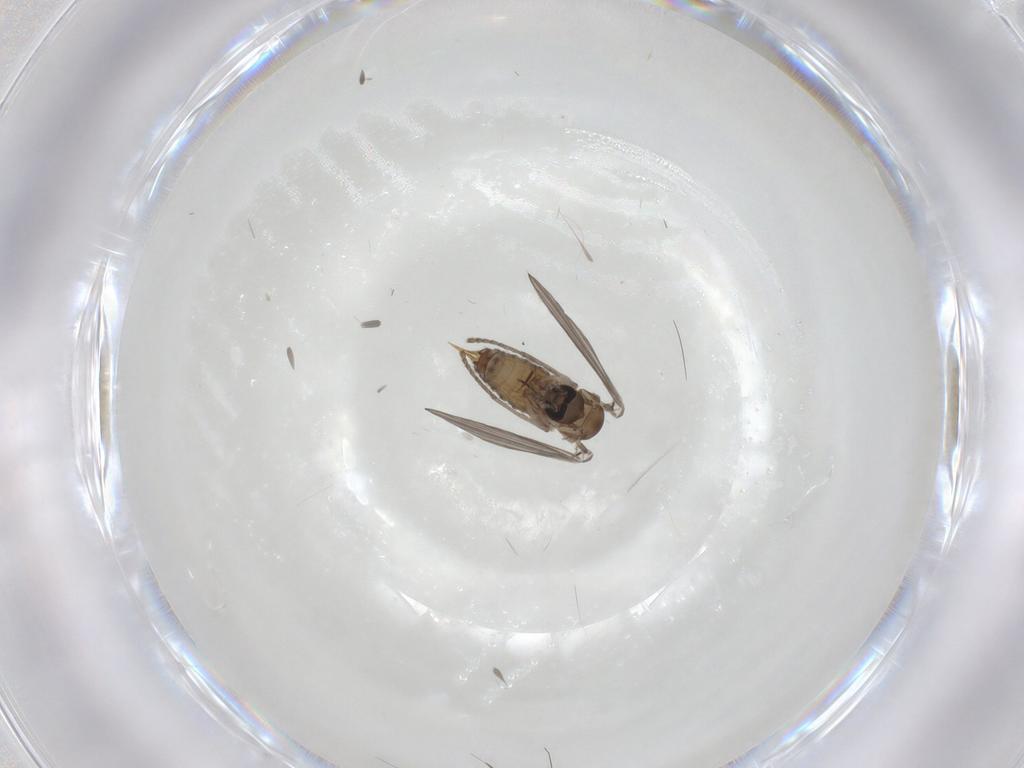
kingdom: Animalia
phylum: Arthropoda
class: Insecta
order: Diptera
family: Psychodidae
